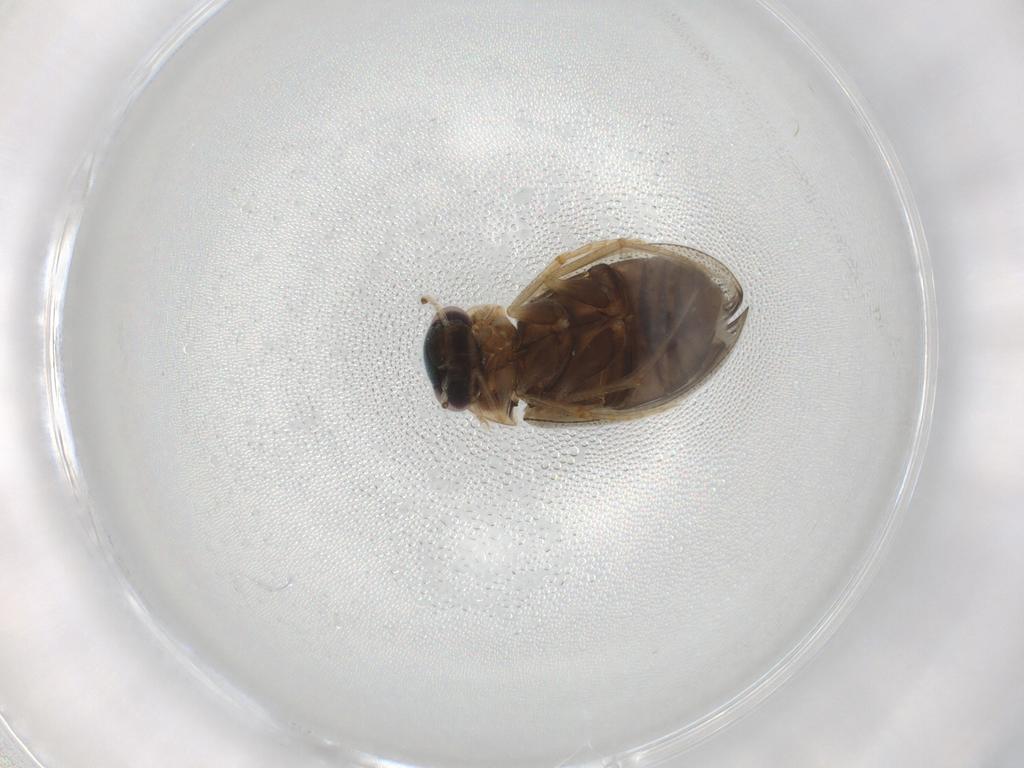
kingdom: Animalia
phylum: Arthropoda
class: Insecta
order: Coleoptera
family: Hydrophilidae
